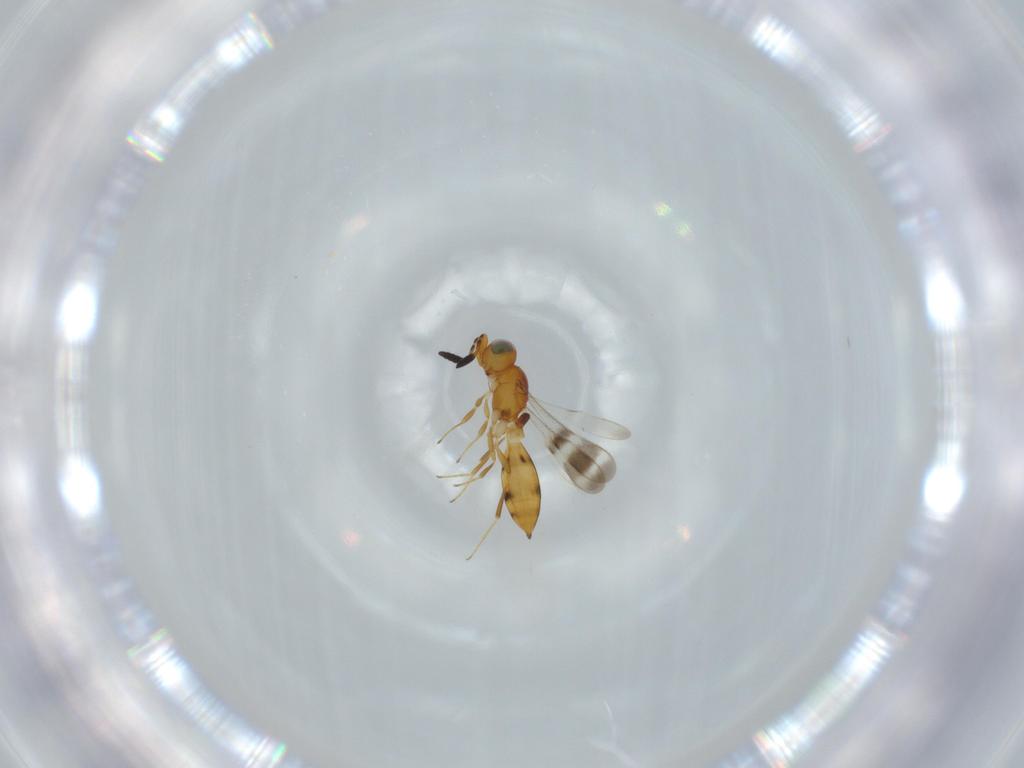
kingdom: Animalia
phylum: Arthropoda
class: Insecta
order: Hymenoptera
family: Scelionidae
